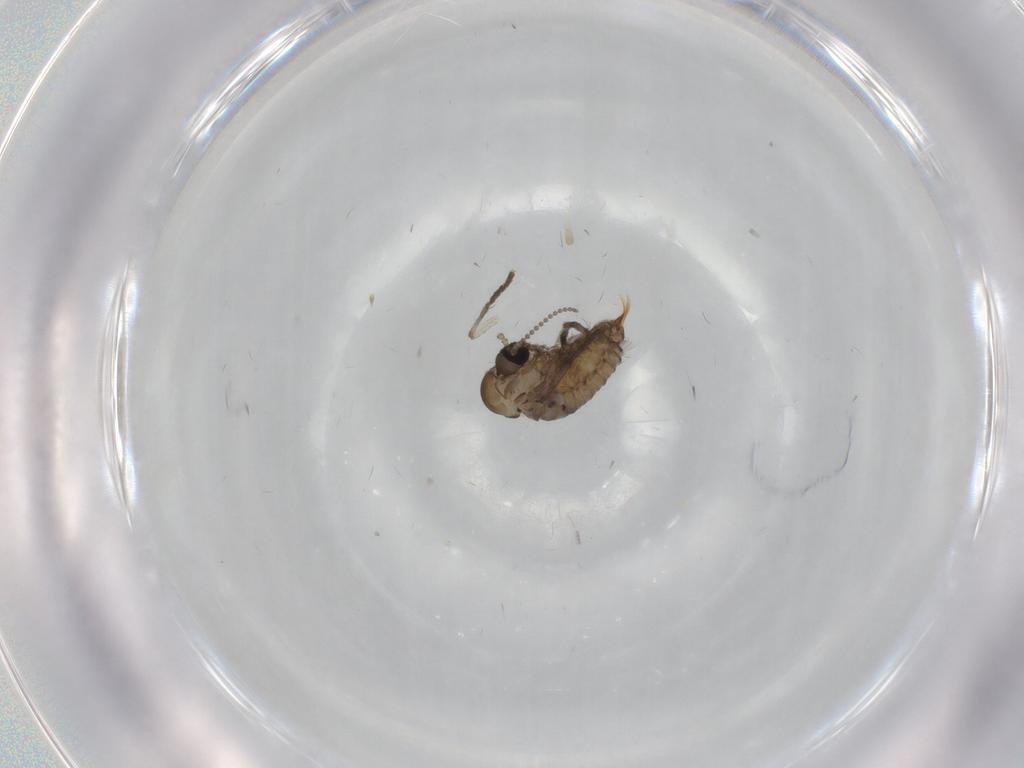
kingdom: Animalia
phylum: Arthropoda
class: Insecta
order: Diptera
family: Psychodidae
